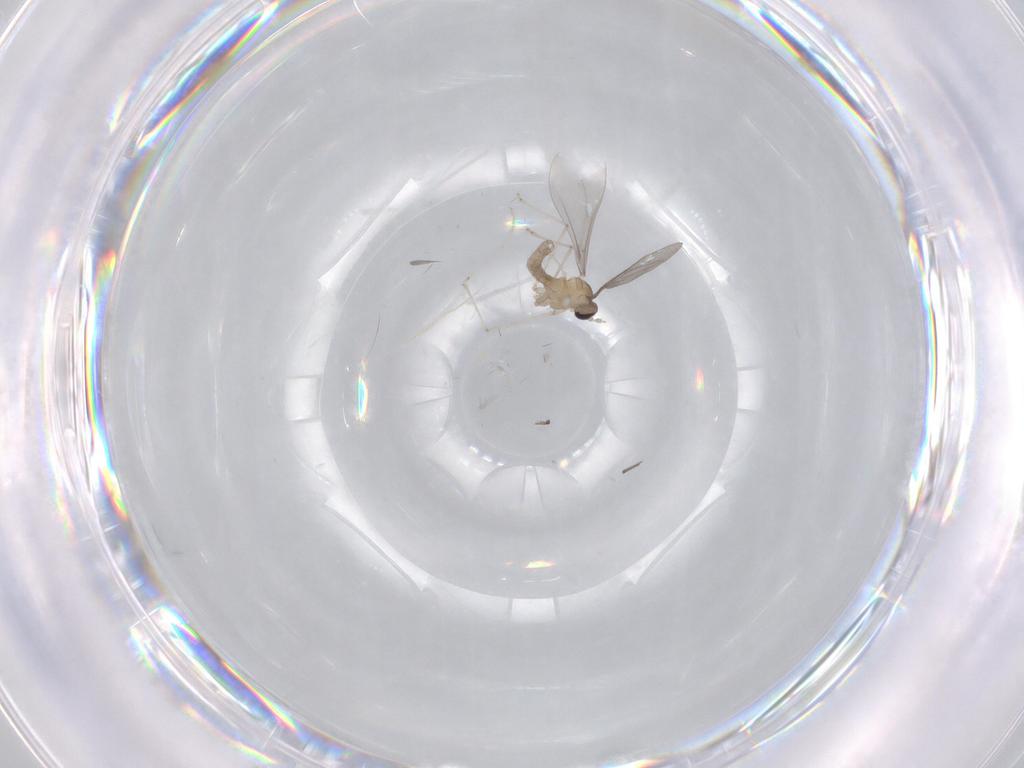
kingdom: Animalia
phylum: Arthropoda
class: Insecta
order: Diptera
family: Cecidomyiidae
